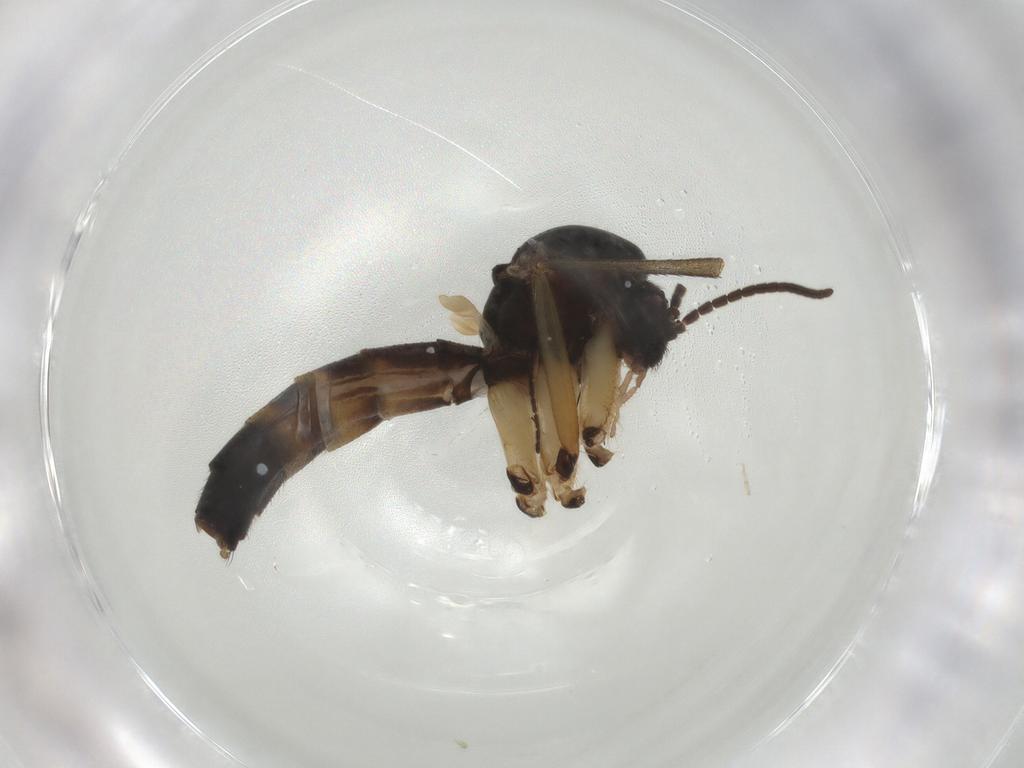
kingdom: Animalia
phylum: Arthropoda
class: Insecta
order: Diptera
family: Mycetophilidae
